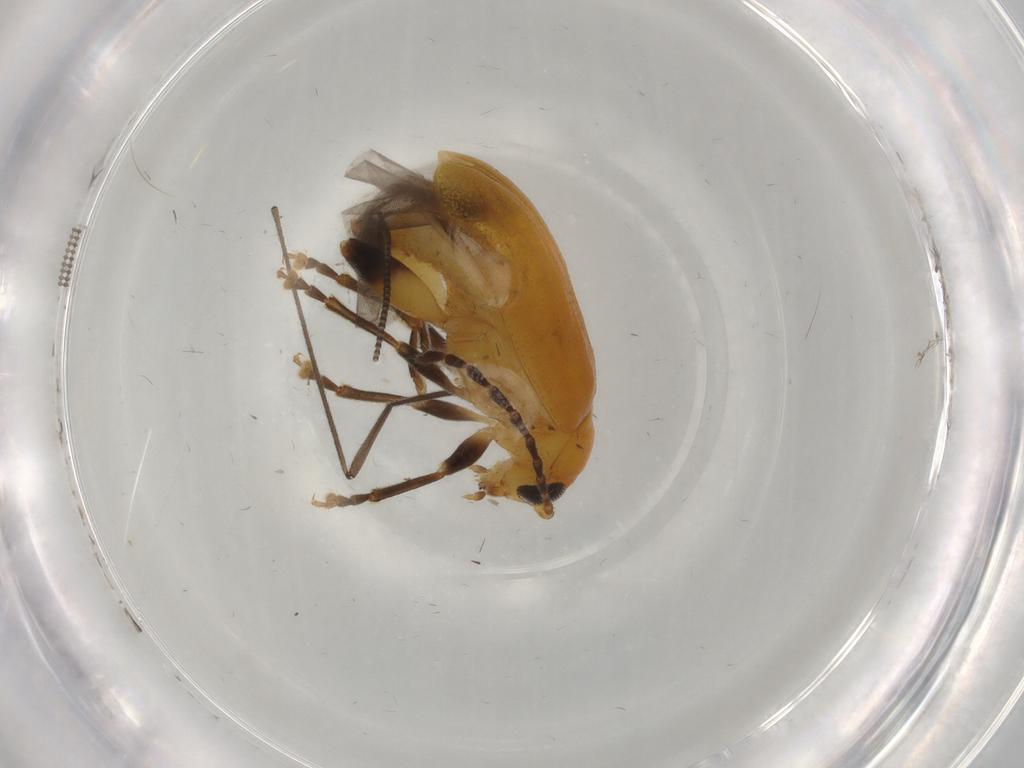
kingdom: Animalia
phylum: Arthropoda
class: Insecta
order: Coleoptera
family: Chrysomelidae
